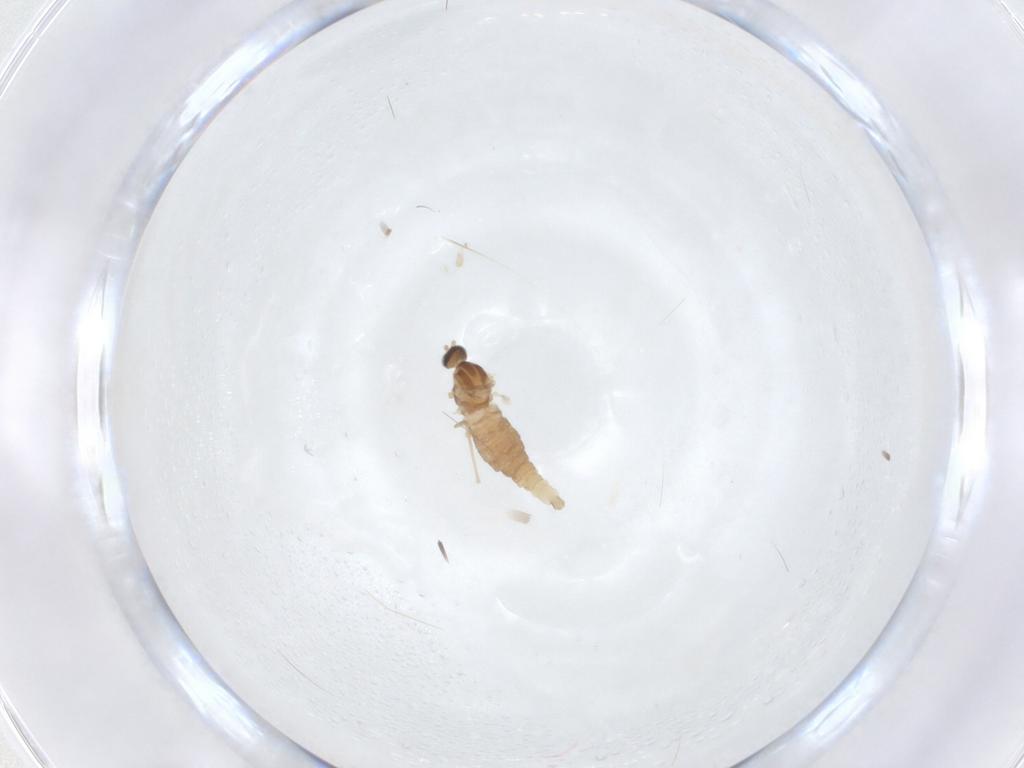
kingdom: Animalia
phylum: Arthropoda
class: Insecta
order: Diptera
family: Cecidomyiidae
